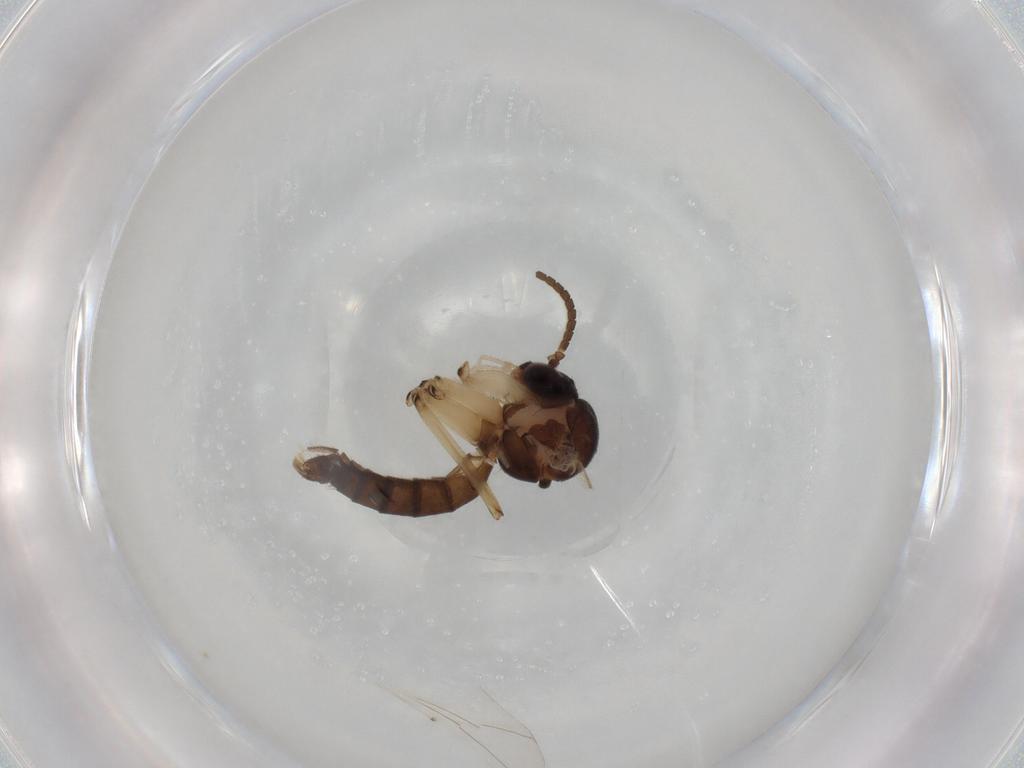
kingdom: Animalia
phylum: Arthropoda
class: Insecta
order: Diptera
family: Mycetophilidae
